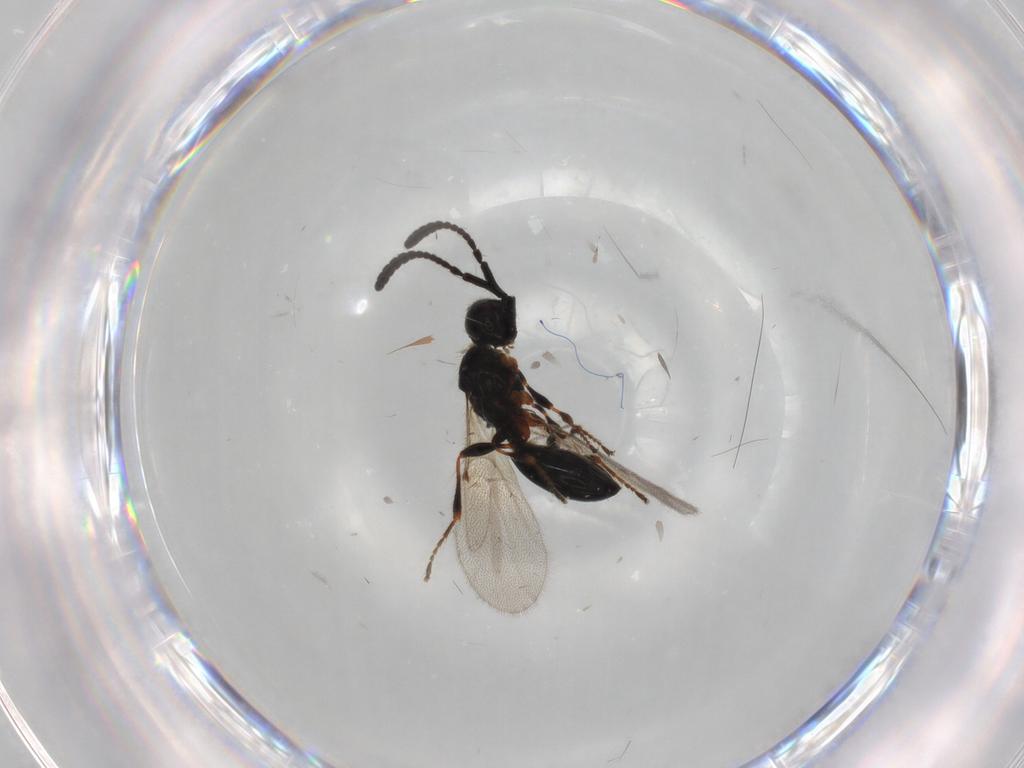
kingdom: Animalia
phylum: Arthropoda
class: Insecta
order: Hymenoptera
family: Diapriidae
